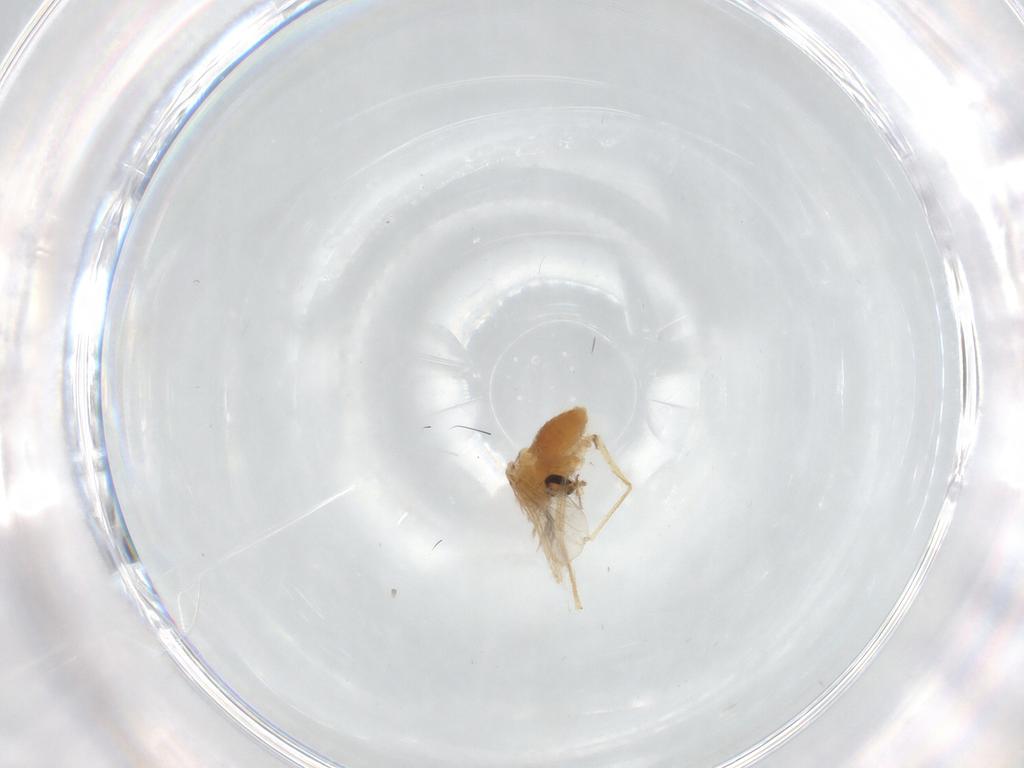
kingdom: Animalia
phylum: Arthropoda
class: Insecta
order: Diptera
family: Chironomidae
